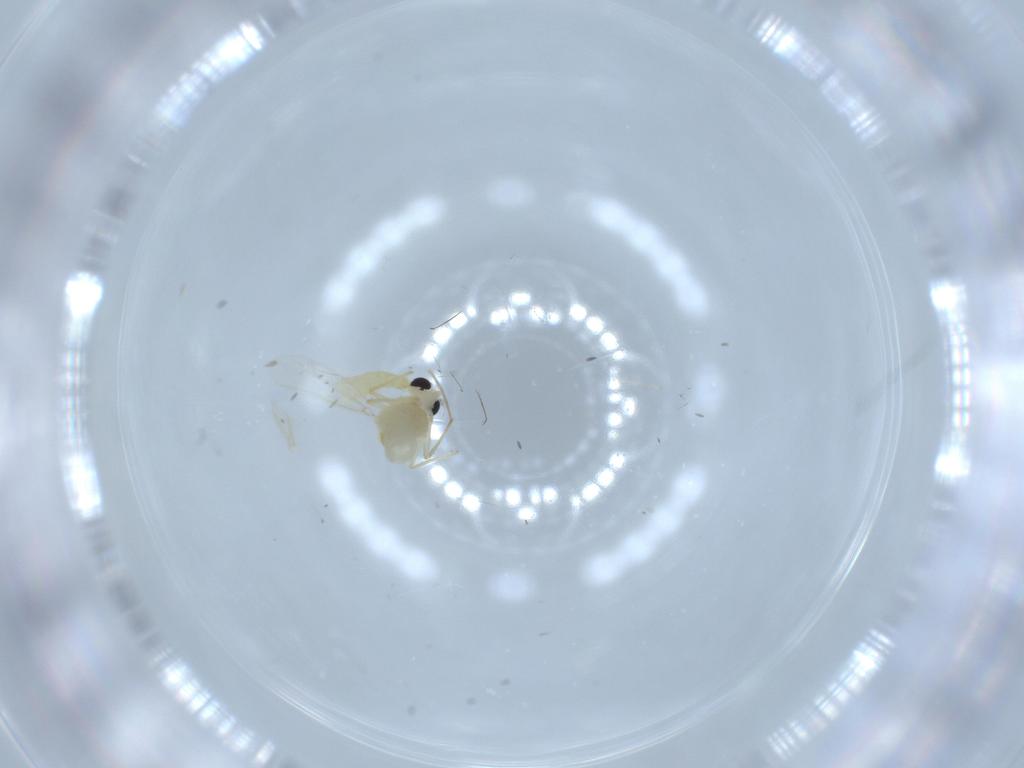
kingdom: Animalia
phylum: Arthropoda
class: Insecta
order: Diptera
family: Chironomidae
